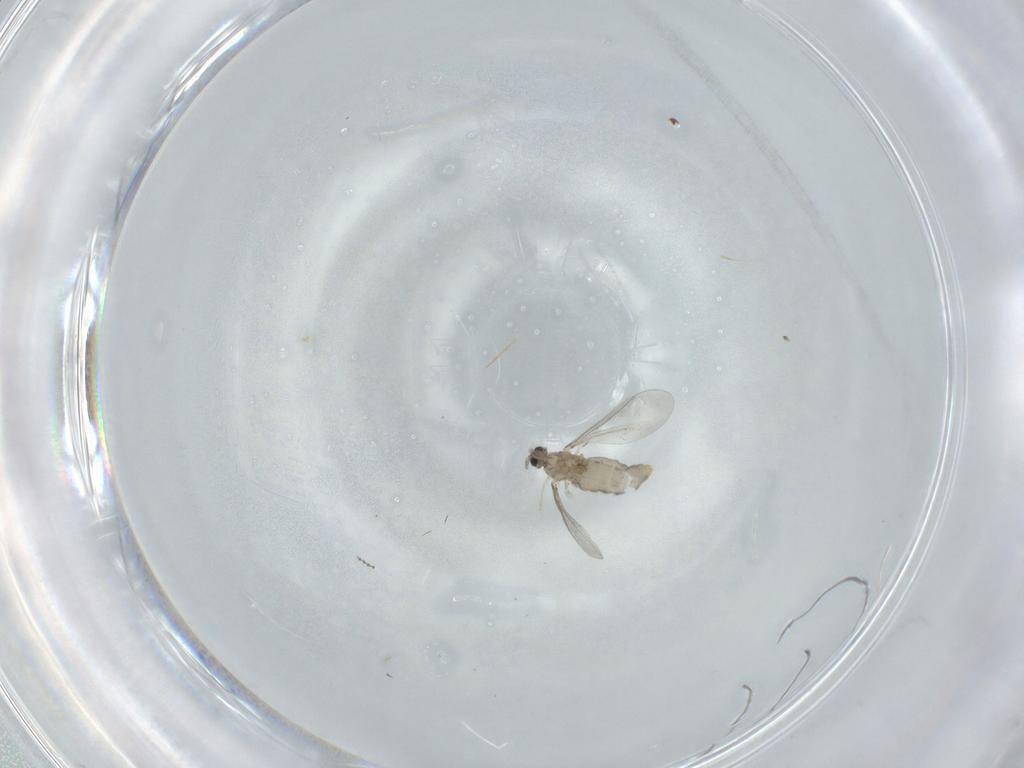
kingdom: Animalia
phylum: Arthropoda
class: Insecta
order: Diptera
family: Cecidomyiidae
